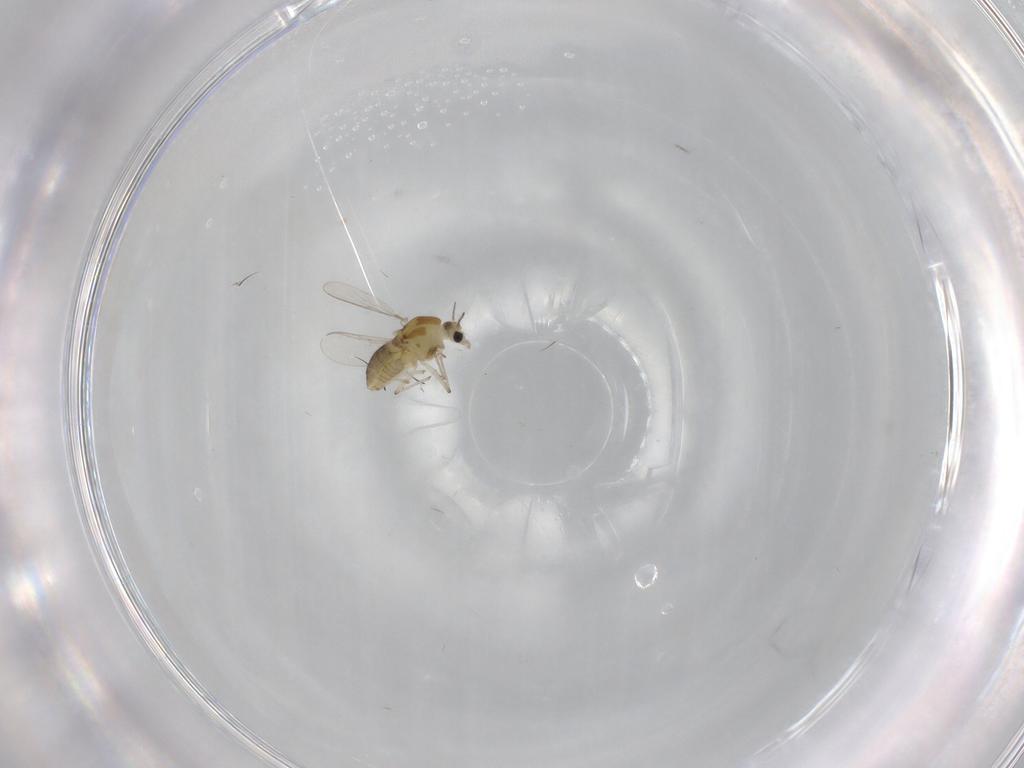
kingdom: Animalia
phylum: Arthropoda
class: Insecta
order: Diptera
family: Chironomidae
